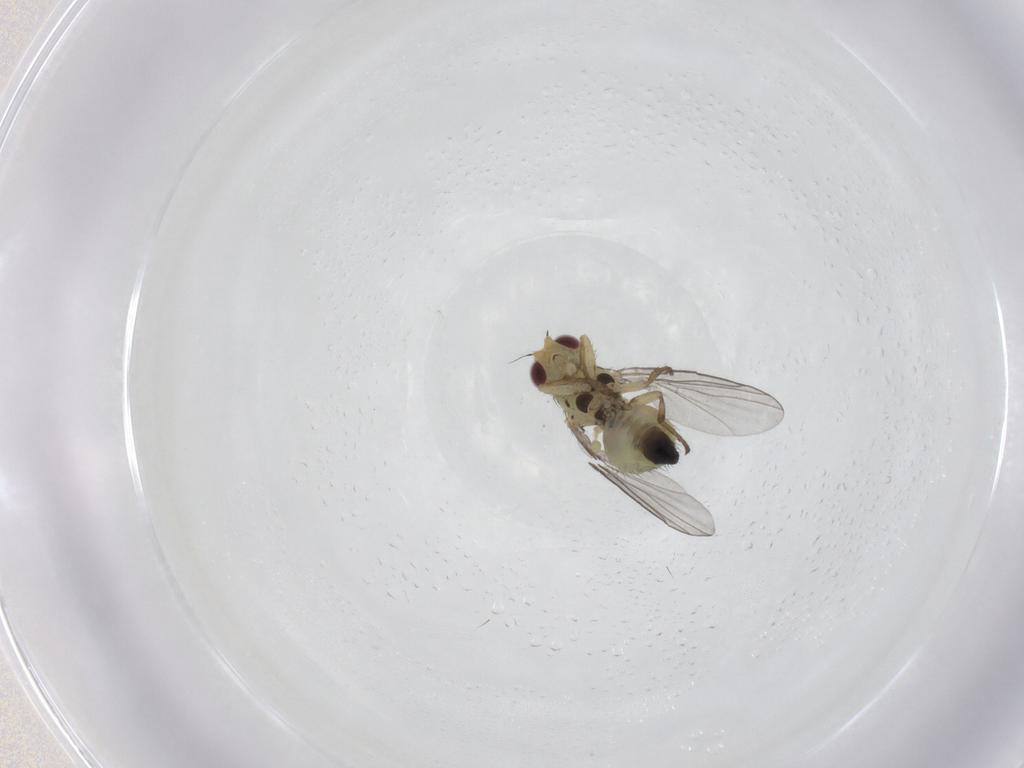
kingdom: Animalia
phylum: Arthropoda
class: Insecta
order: Diptera
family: Agromyzidae
